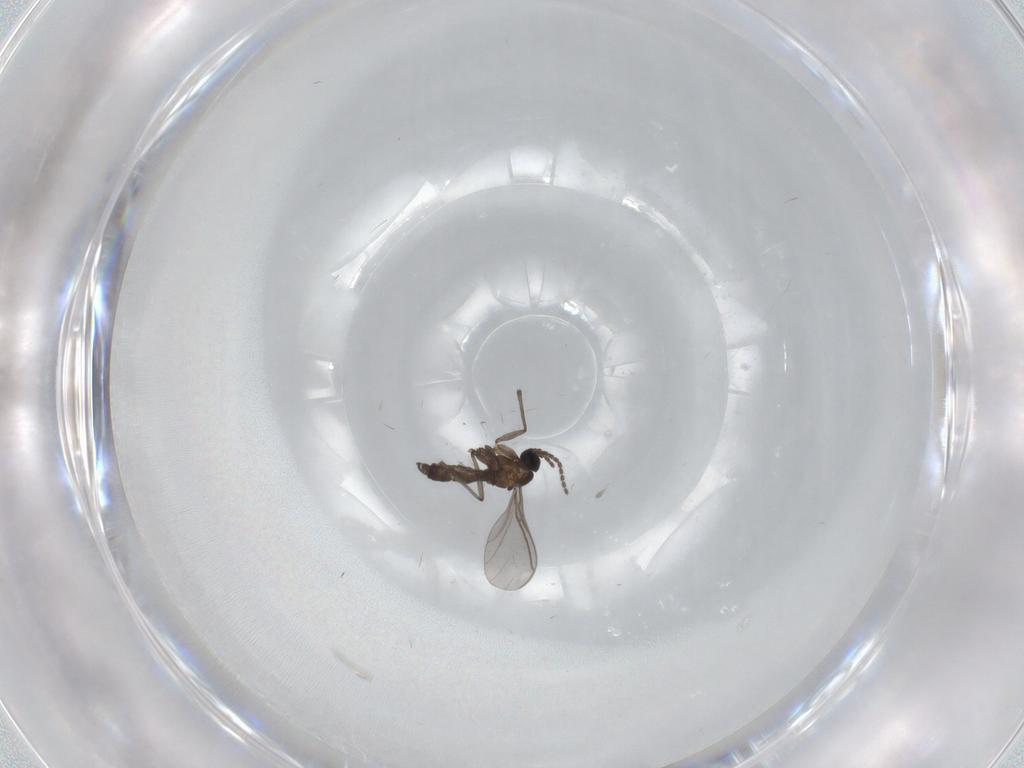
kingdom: Animalia
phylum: Arthropoda
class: Insecta
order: Diptera
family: Sciaridae
